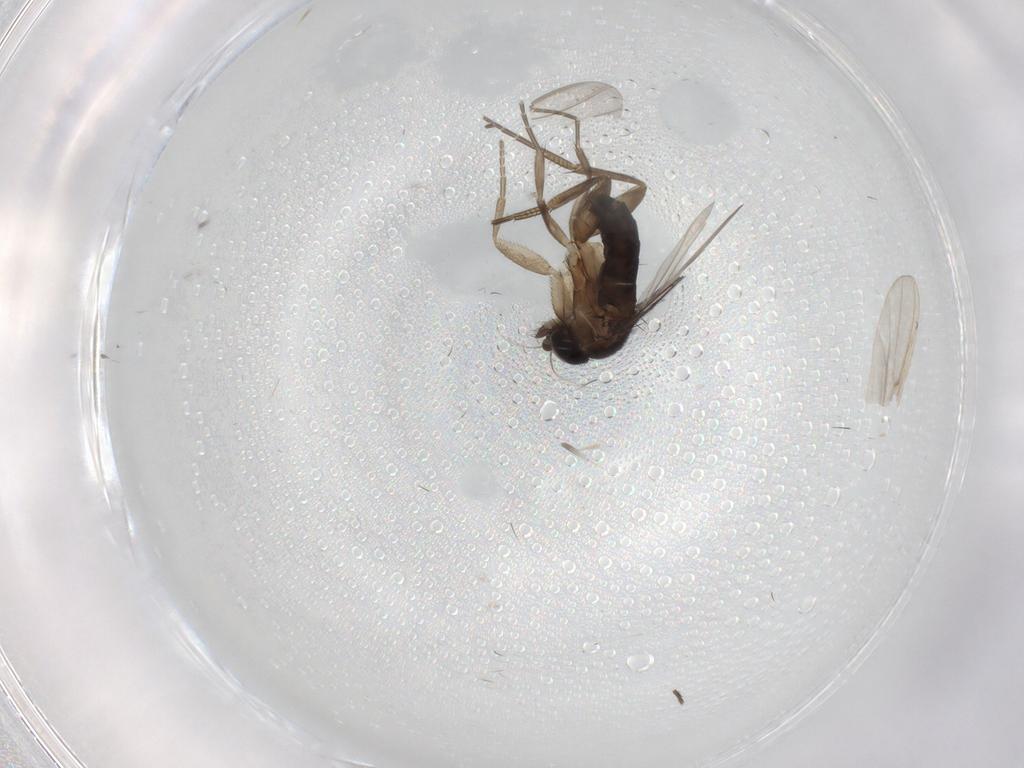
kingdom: Animalia
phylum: Arthropoda
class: Insecta
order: Diptera
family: Phoridae
